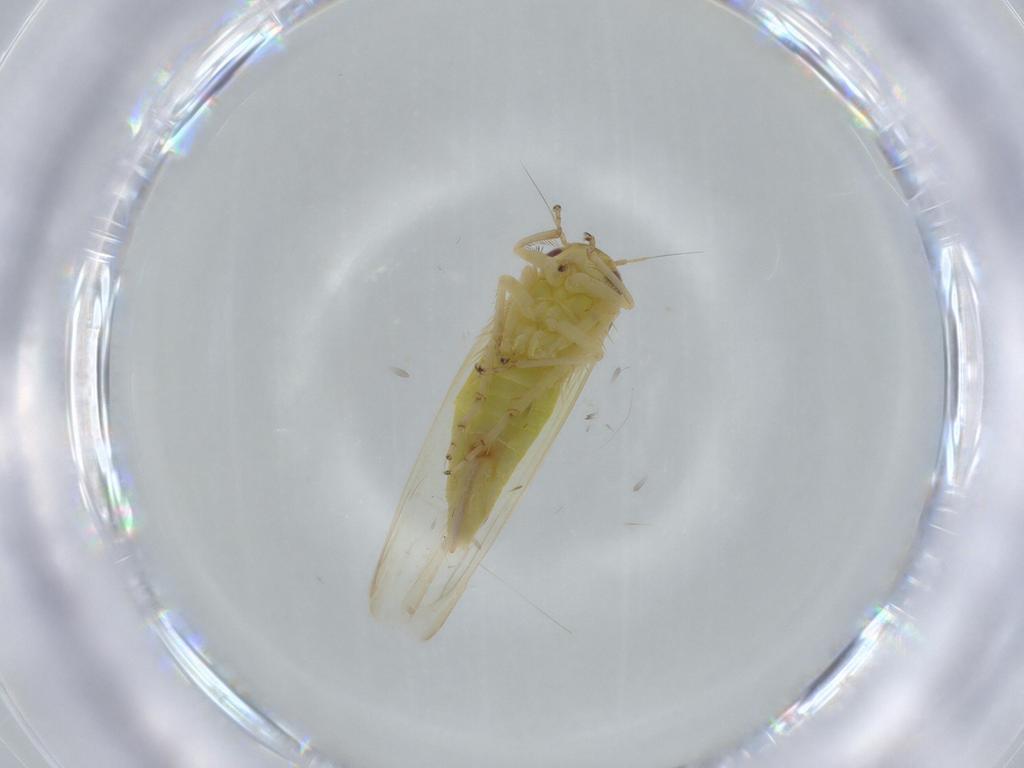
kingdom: Animalia
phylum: Arthropoda
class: Insecta
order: Hemiptera
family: Cicadellidae
